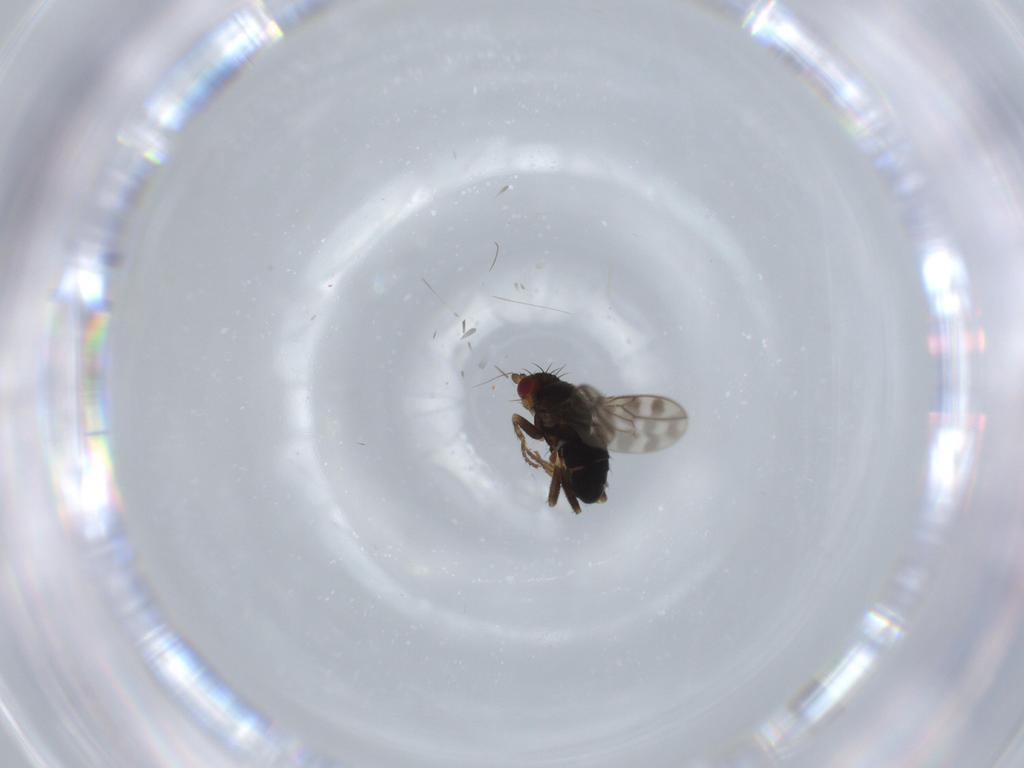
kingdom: Animalia
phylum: Arthropoda
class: Insecta
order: Diptera
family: Sphaeroceridae
